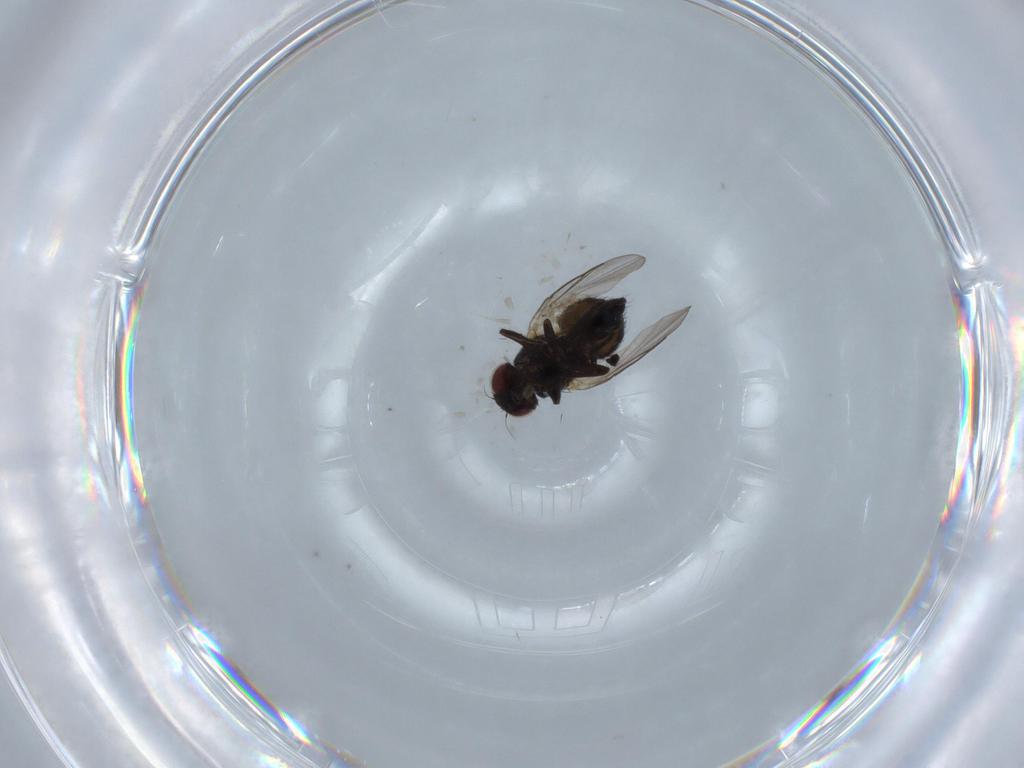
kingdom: Animalia
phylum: Arthropoda
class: Insecta
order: Diptera
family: Agromyzidae
